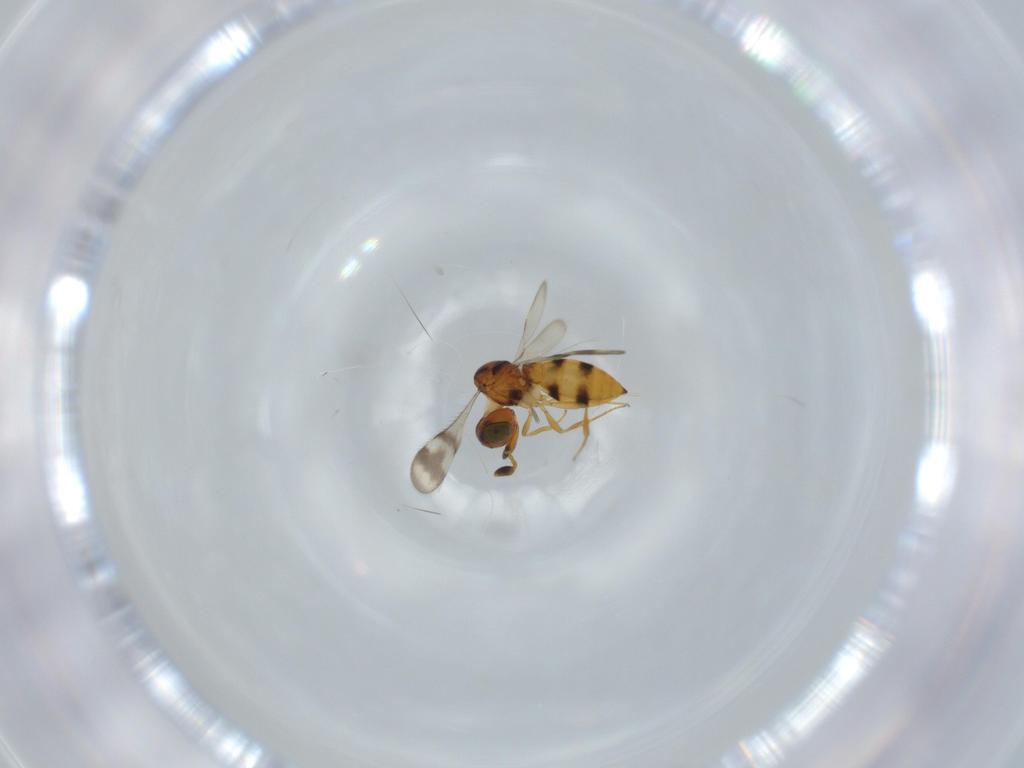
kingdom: Animalia
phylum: Arthropoda
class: Insecta
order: Hymenoptera
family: Scelionidae
